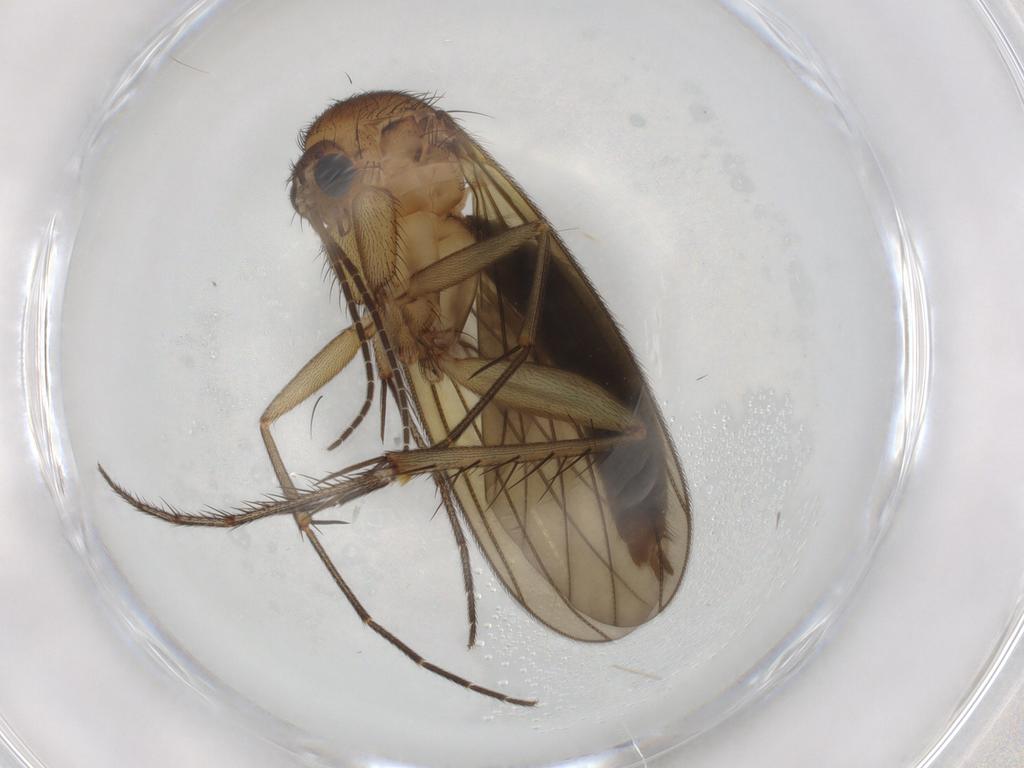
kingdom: Animalia
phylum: Arthropoda
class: Insecta
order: Diptera
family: Mycetophilidae
